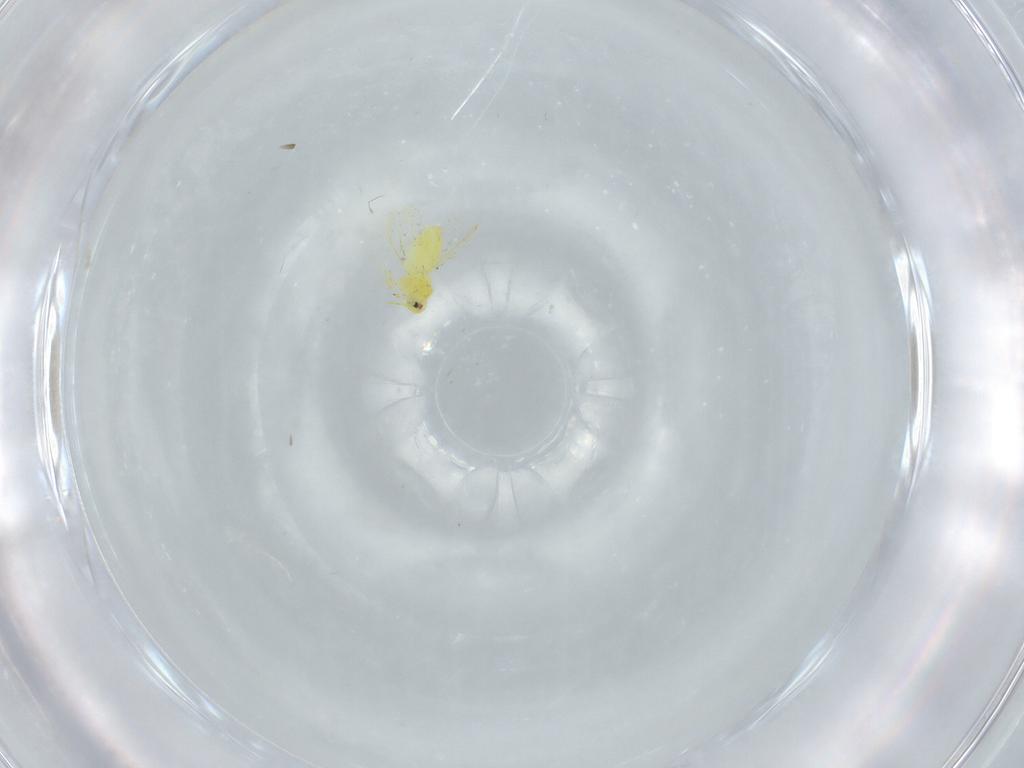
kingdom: Animalia
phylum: Arthropoda
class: Insecta
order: Hemiptera
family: Aleyrodidae
